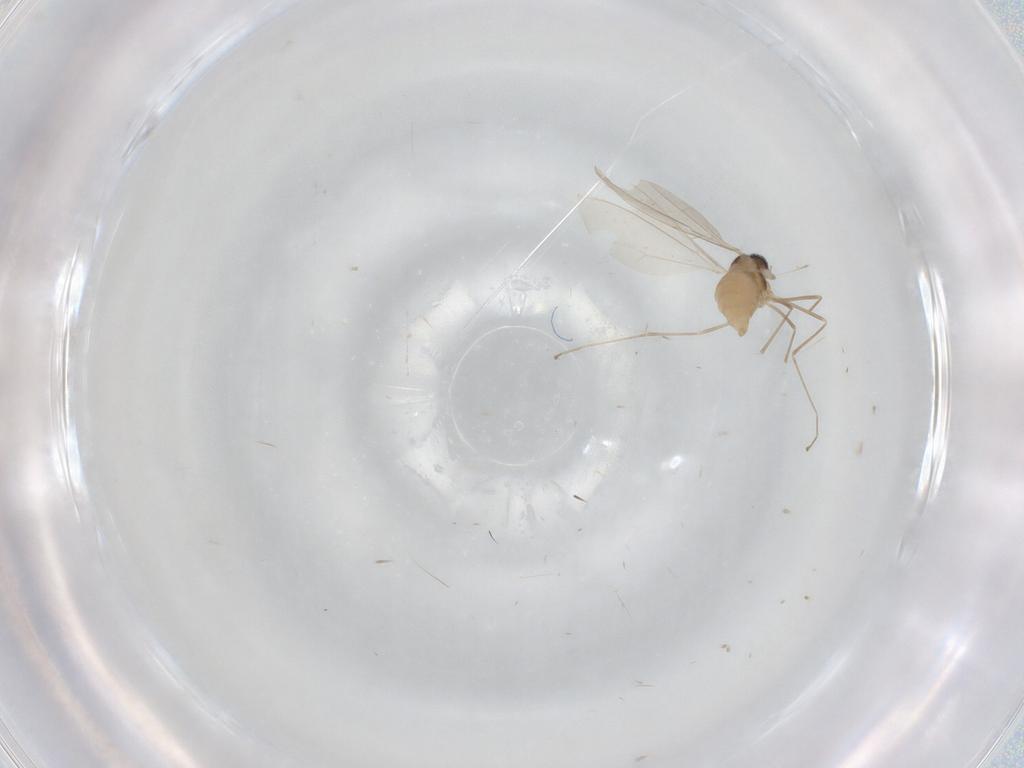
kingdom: Animalia
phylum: Arthropoda
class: Insecta
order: Diptera
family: Cecidomyiidae
